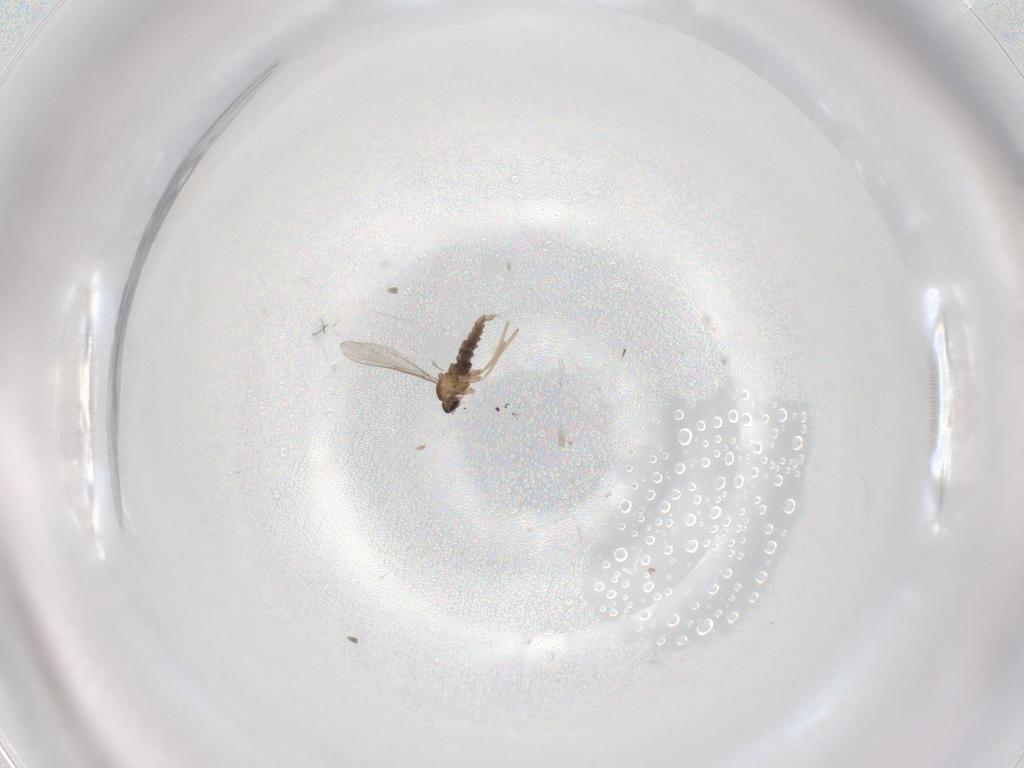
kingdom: Animalia
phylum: Arthropoda
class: Insecta
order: Diptera
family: Cecidomyiidae
